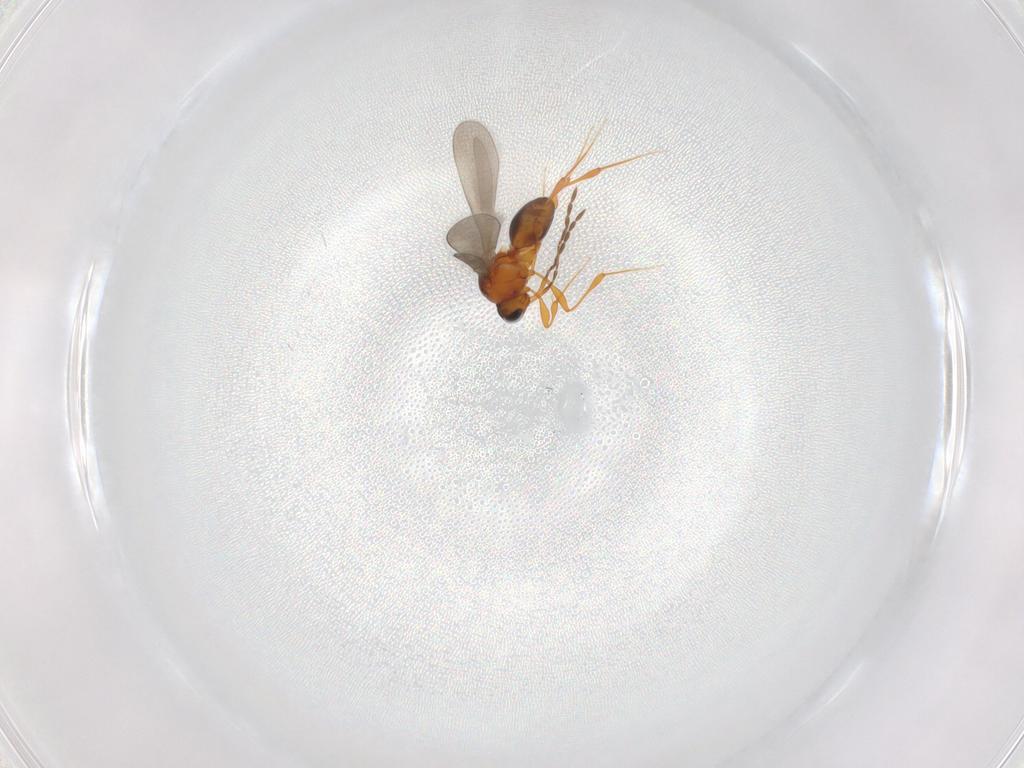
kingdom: Animalia
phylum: Arthropoda
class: Insecta
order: Hymenoptera
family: Platygastridae
